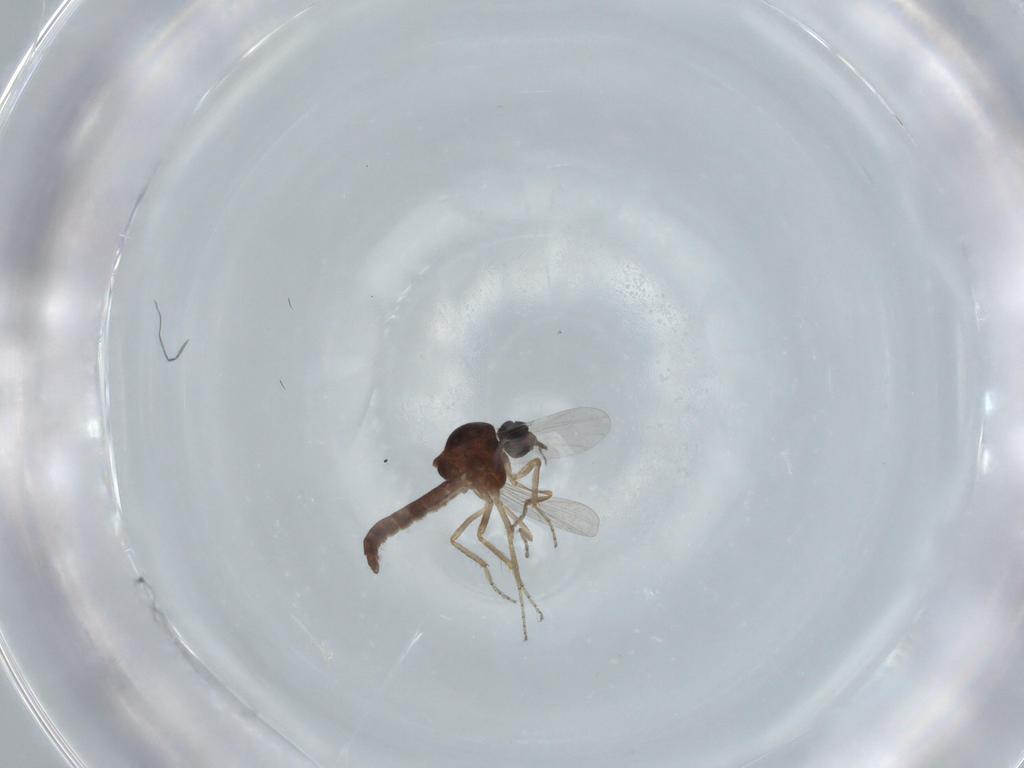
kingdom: Animalia
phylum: Arthropoda
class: Insecta
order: Diptera
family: Ceratopogonidae
